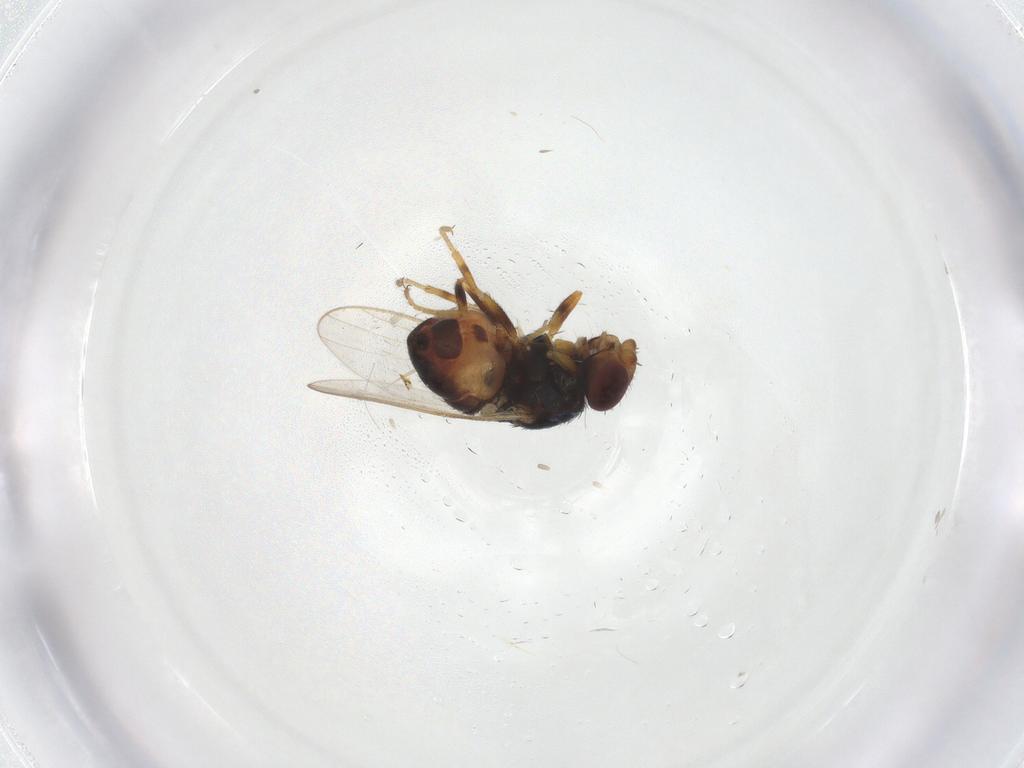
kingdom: Animalia
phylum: Arthropoda
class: Insecta
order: Diptera
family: Chloropidae
